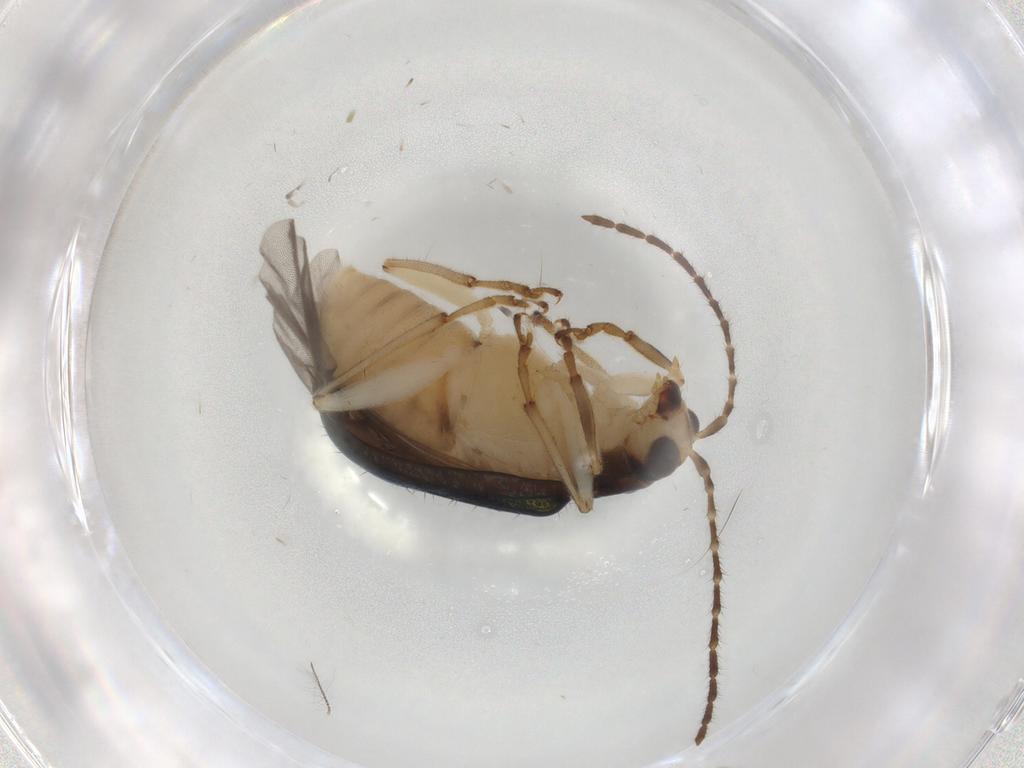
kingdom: Animalia
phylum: Arthropoda
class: Insecta
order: Coleoptera
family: Chrysomelidae
